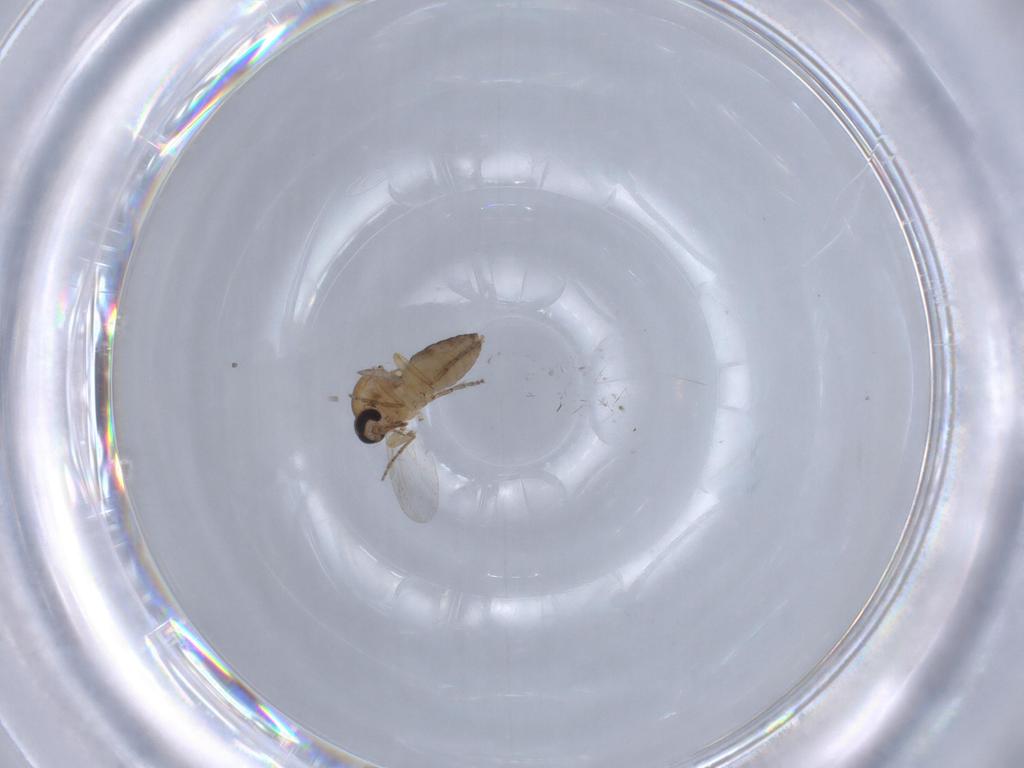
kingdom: Animalia
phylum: Arthropoda
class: Insecta
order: Diptera
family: Ceratopogonidae
